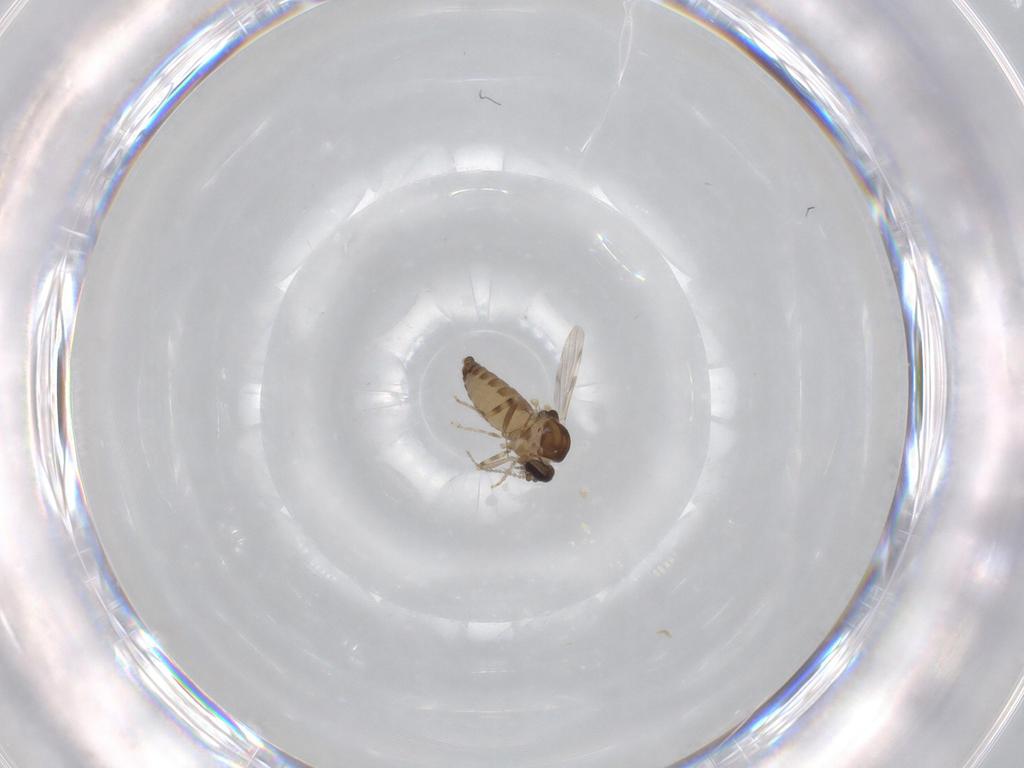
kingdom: Animalia
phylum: Arthropoda
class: Insecta
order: Diptera
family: Ceratopogonidae
